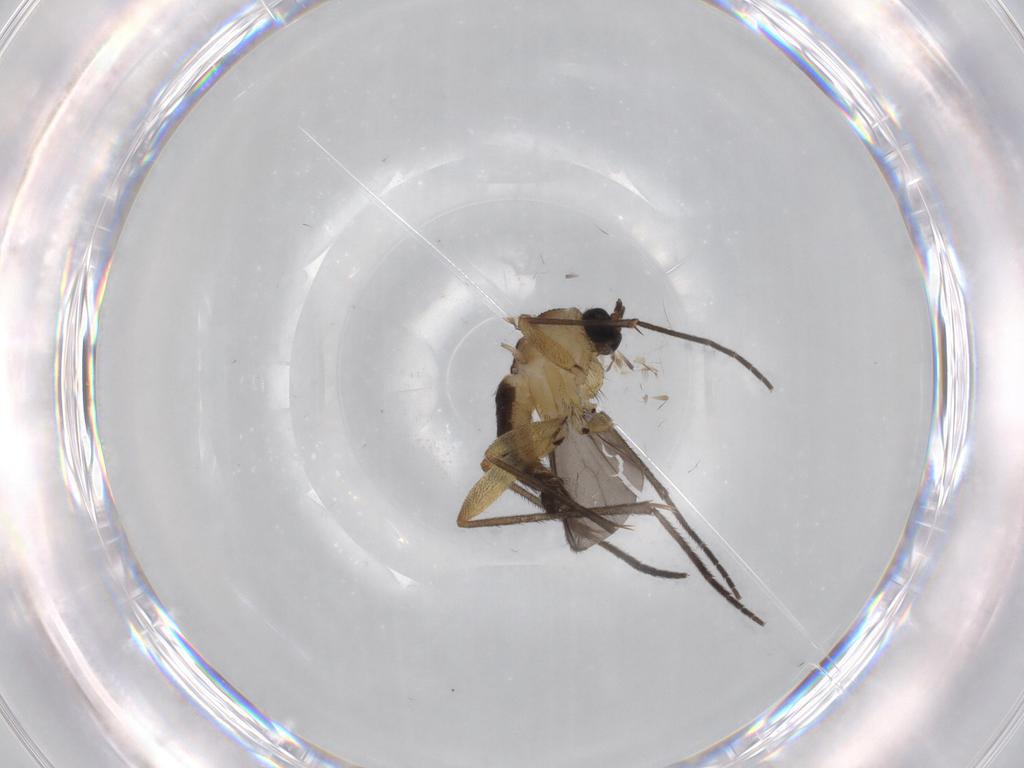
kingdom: Animalia
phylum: Arthropoda
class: Insecta
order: Diptera
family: Sciaridae
